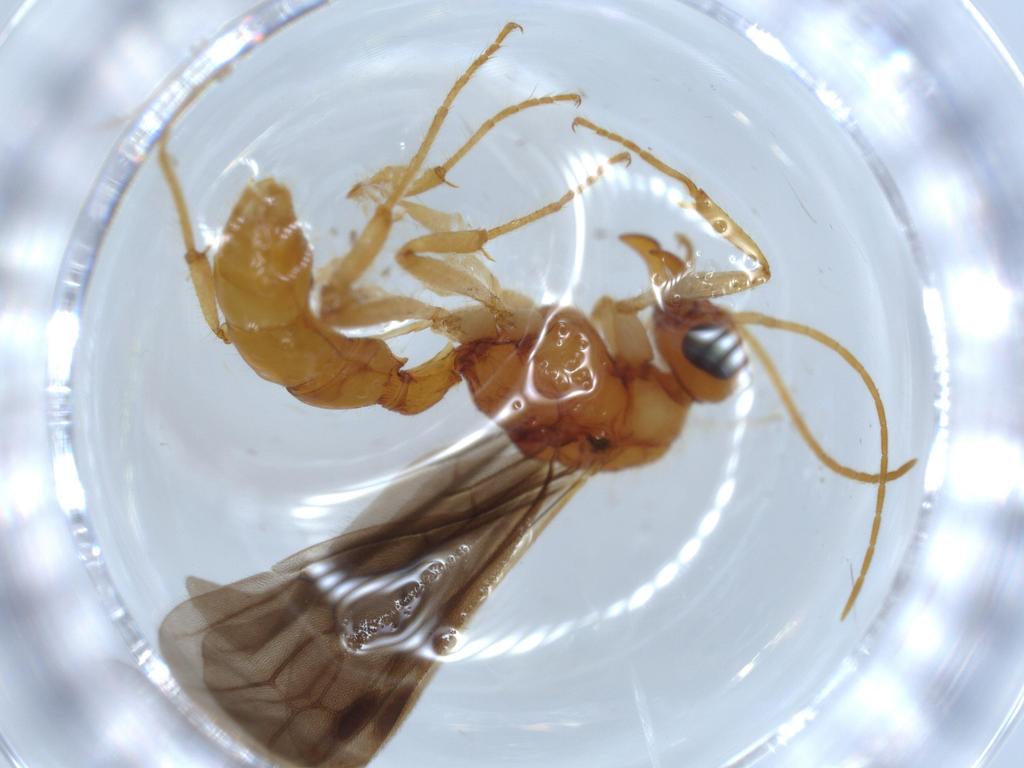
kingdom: Animalia
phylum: Arthropoda
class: Insecta
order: Hymenoptera
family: Formicidae
